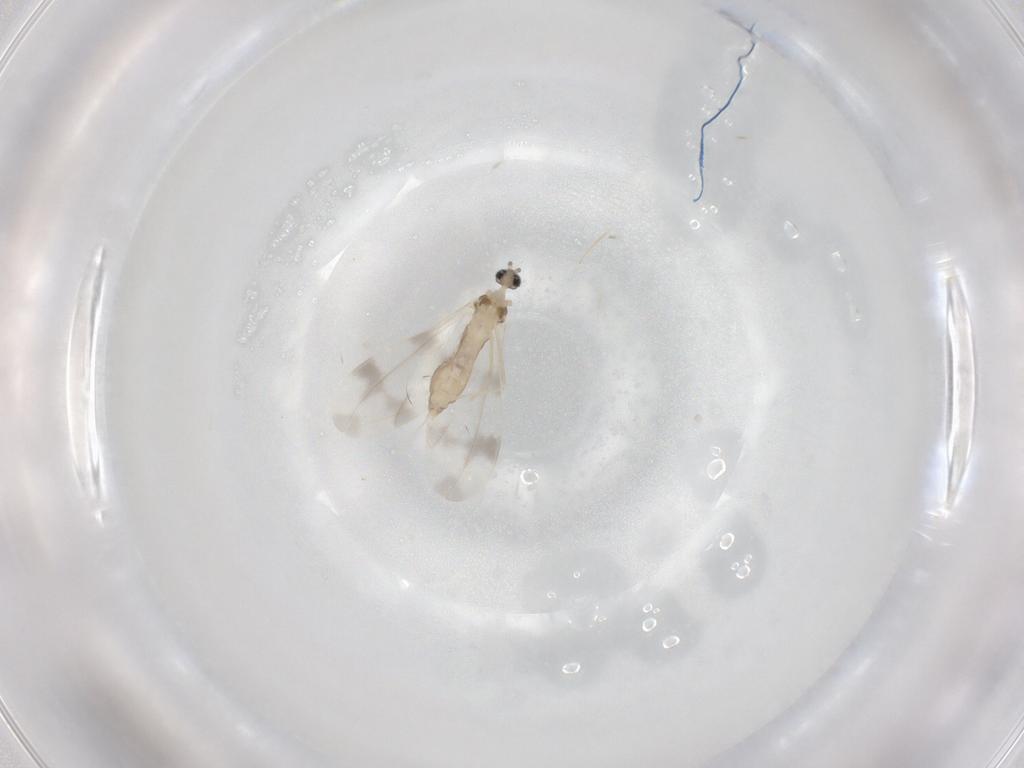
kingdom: Animalia
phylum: Arthropoda
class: Insecta
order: Diptera
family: Cecidomyiidae
